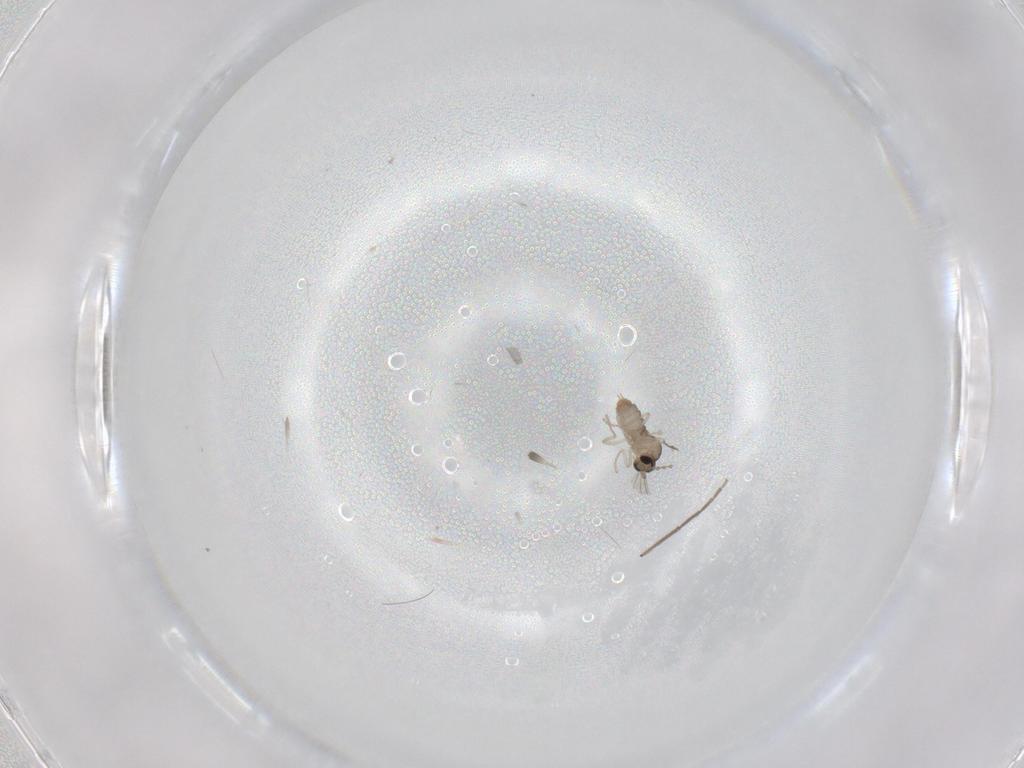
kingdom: Animalia
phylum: Arthropoda
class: Insecta
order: Diptera
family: Cecidomyiidae
